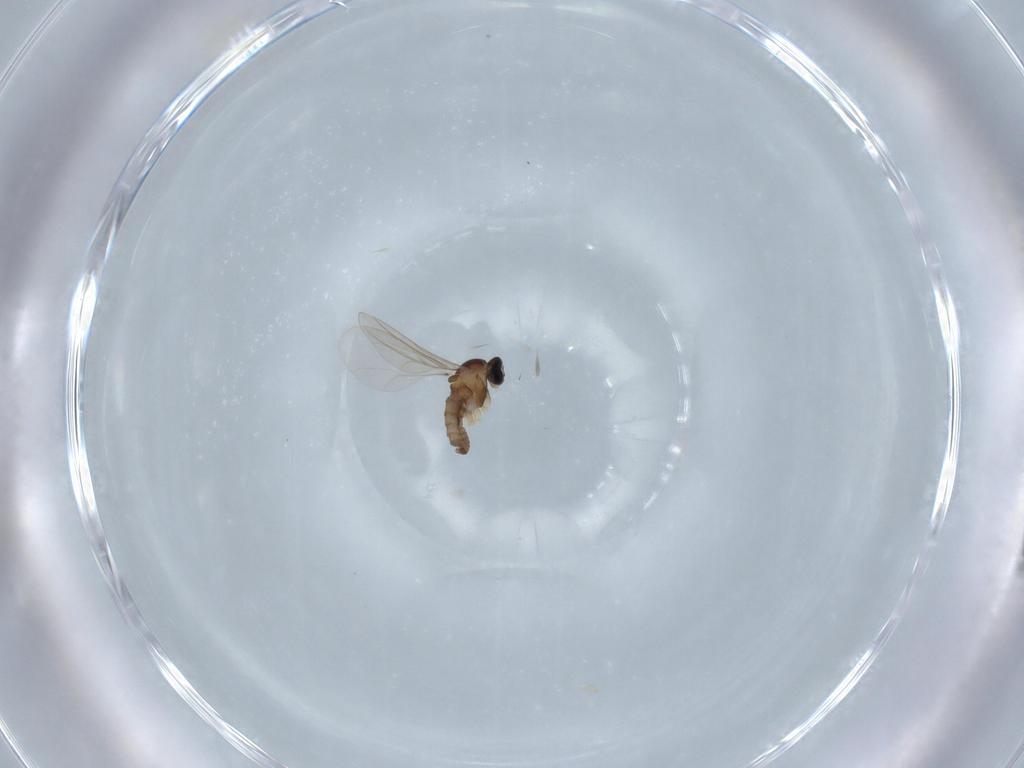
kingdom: Animalia
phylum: Arthropoda
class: Insecta
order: Diptera
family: Cecidomyiidae
